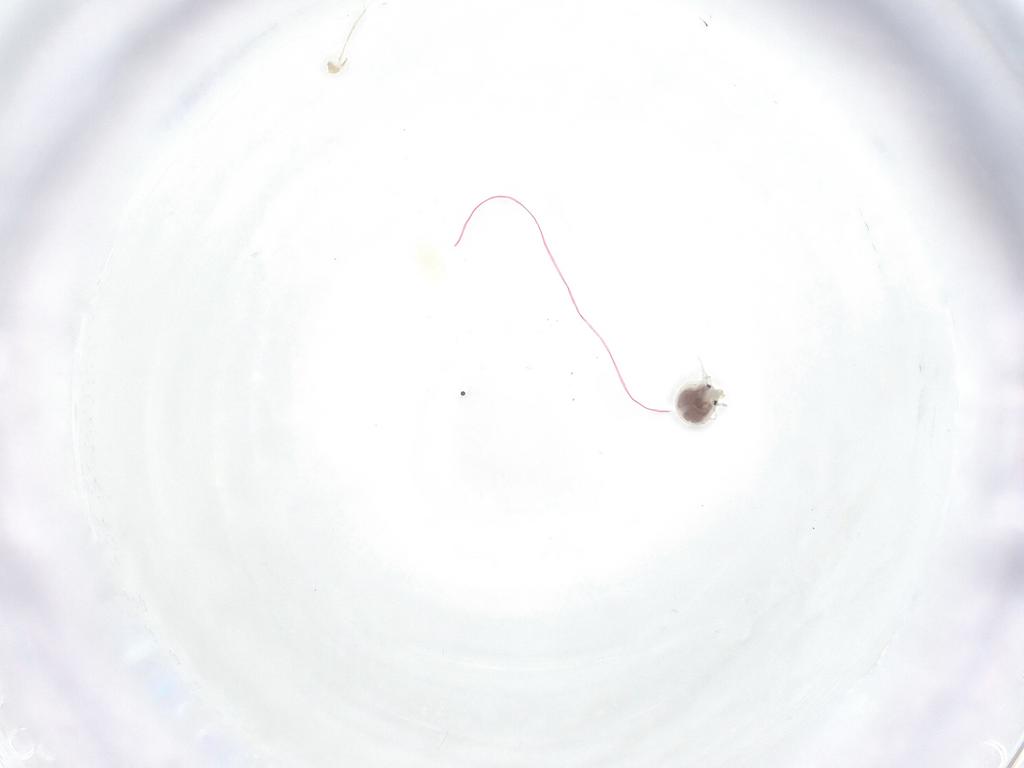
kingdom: Animalia
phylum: Arthropoda
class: Arachnida
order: Trombidiformes
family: Pionidae
